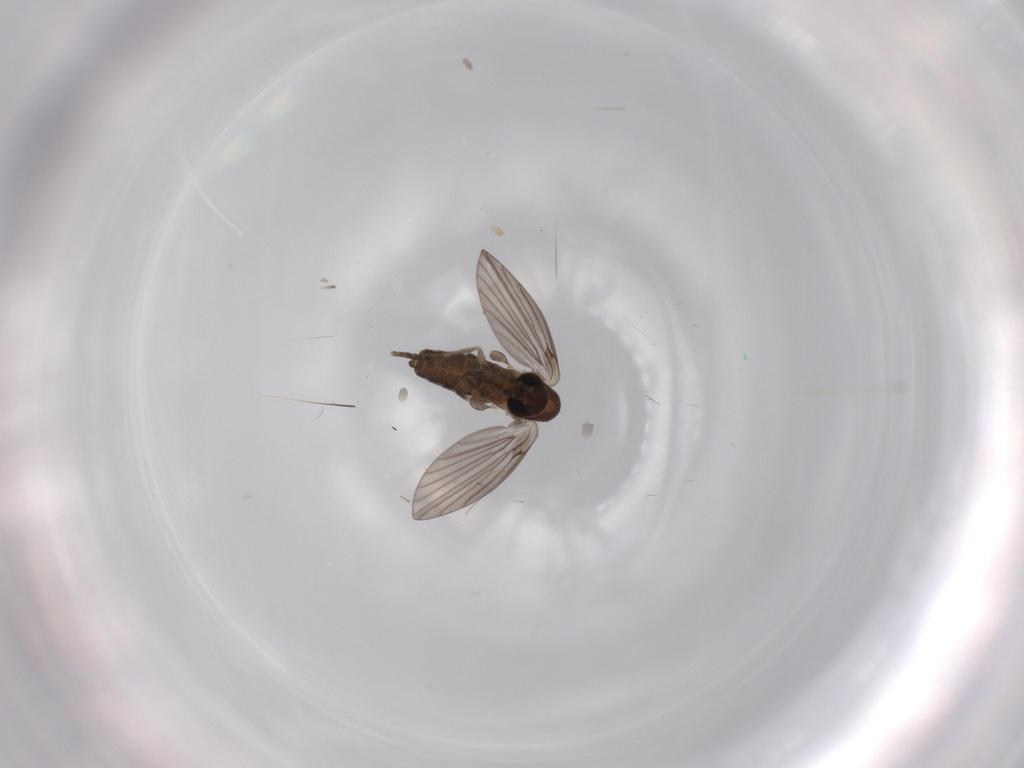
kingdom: Animalia
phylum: Arthropoda
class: Insecta
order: Diptera
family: Psychodidae
